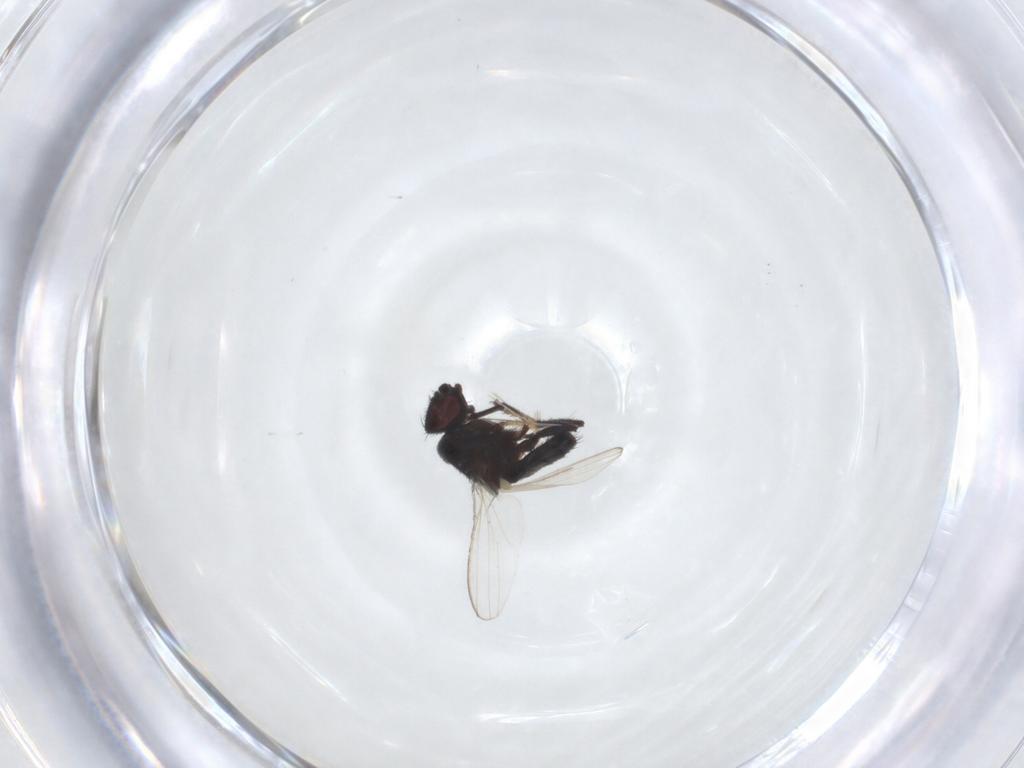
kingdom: Animalia
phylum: Arthropoda
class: Insecta
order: Diptera
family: Milichiidae
